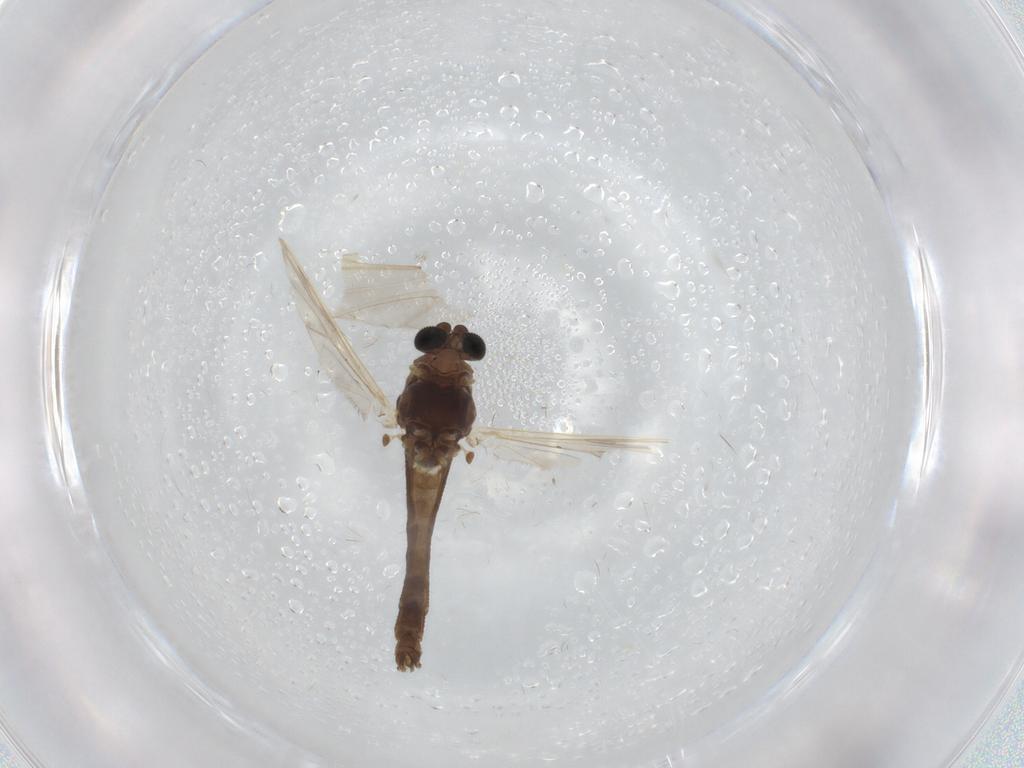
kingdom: Animalia
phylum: Arthropoda
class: Insecta
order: Diptera
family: Chironomidae
